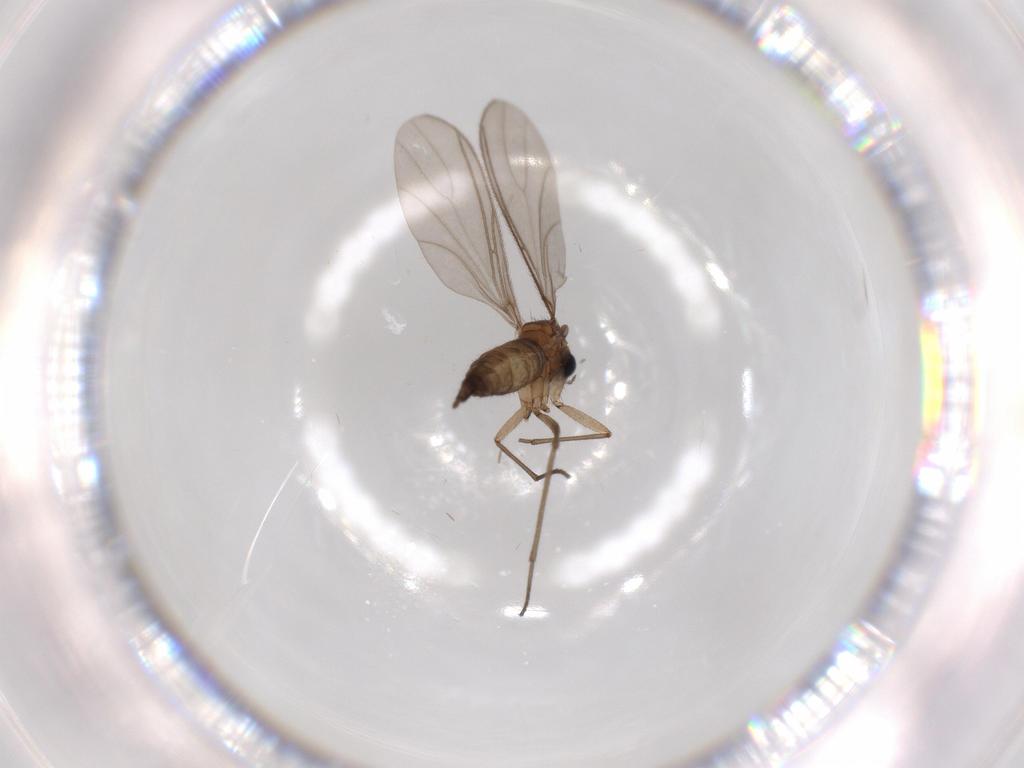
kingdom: Animalia
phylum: Arthropoda
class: Insecta
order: Diptera
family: Sciaridae
